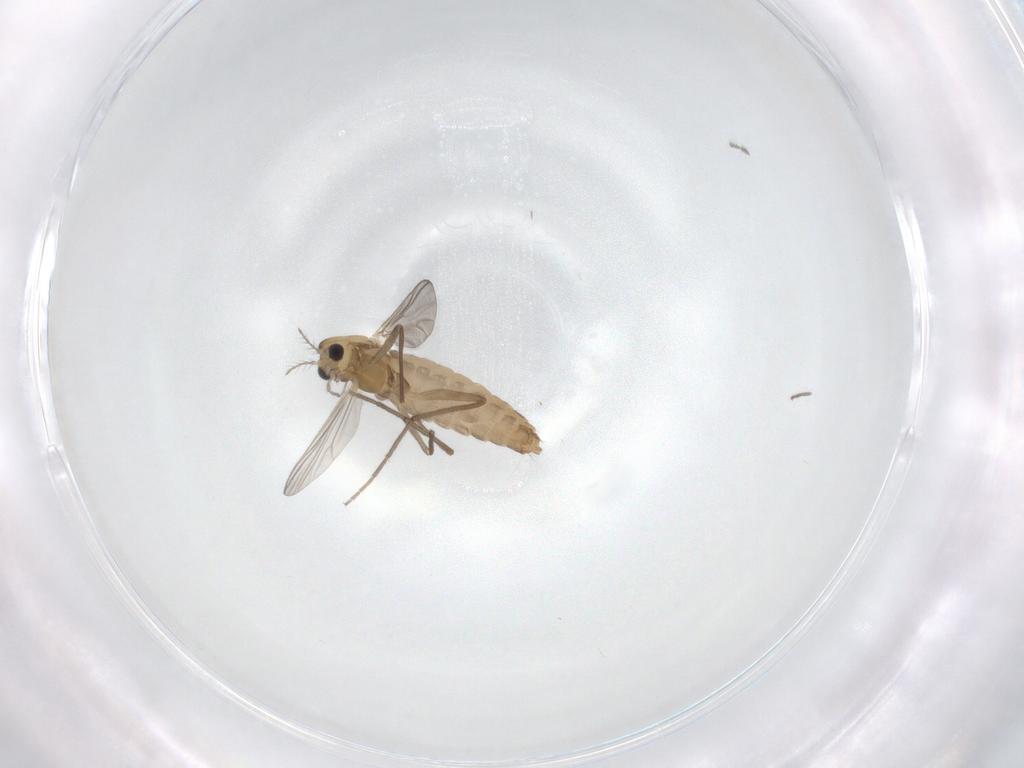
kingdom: Animalia
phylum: Arthropoda
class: Insecta
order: Diptera
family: Chironomidae
